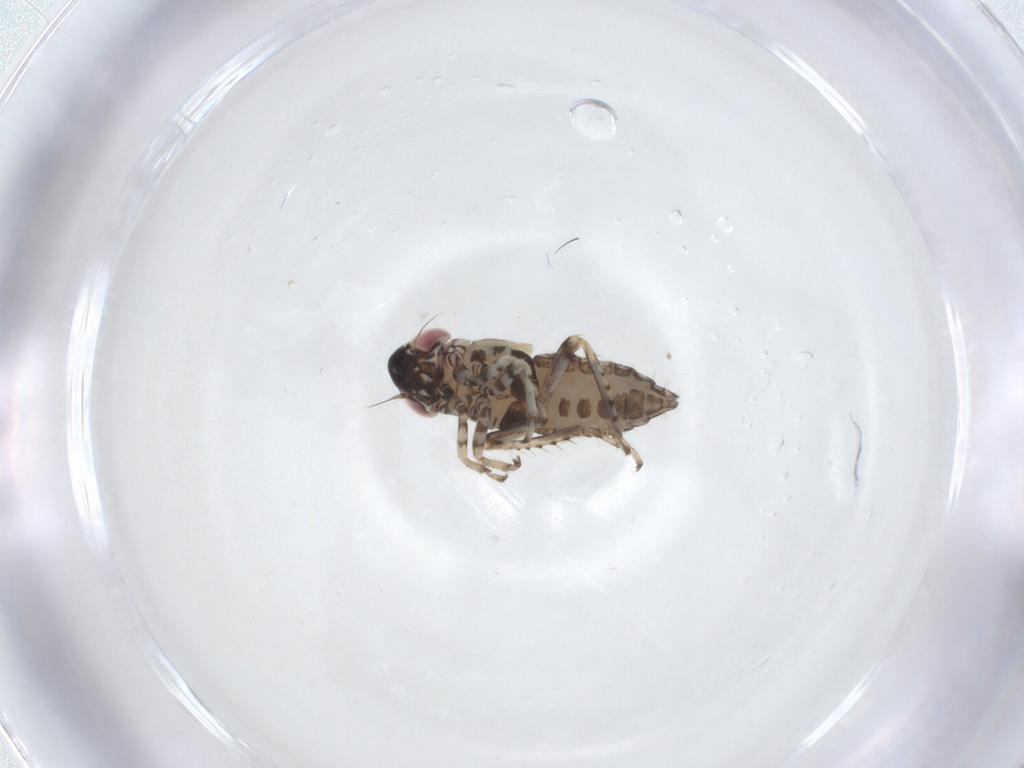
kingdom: Animalia
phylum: Arthropoda
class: Insecta
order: Hemiptera
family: Cicadellidae
